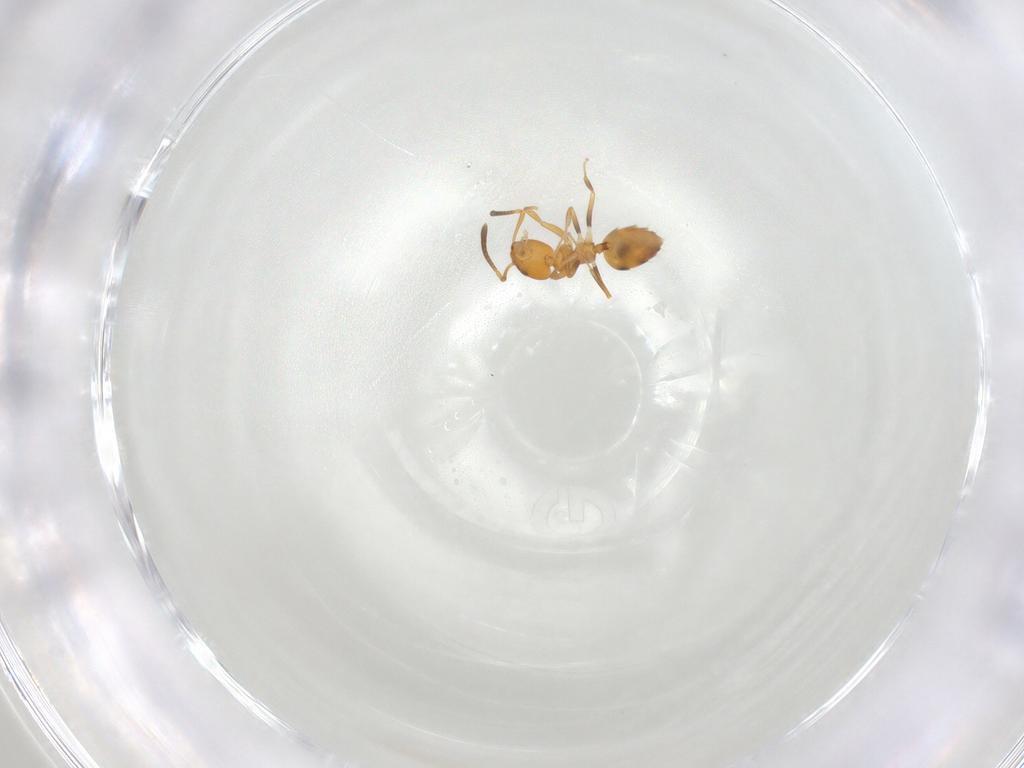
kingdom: Animalia
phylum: Arthropoda
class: Insecta
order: Hymenoptera
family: Formicidae
